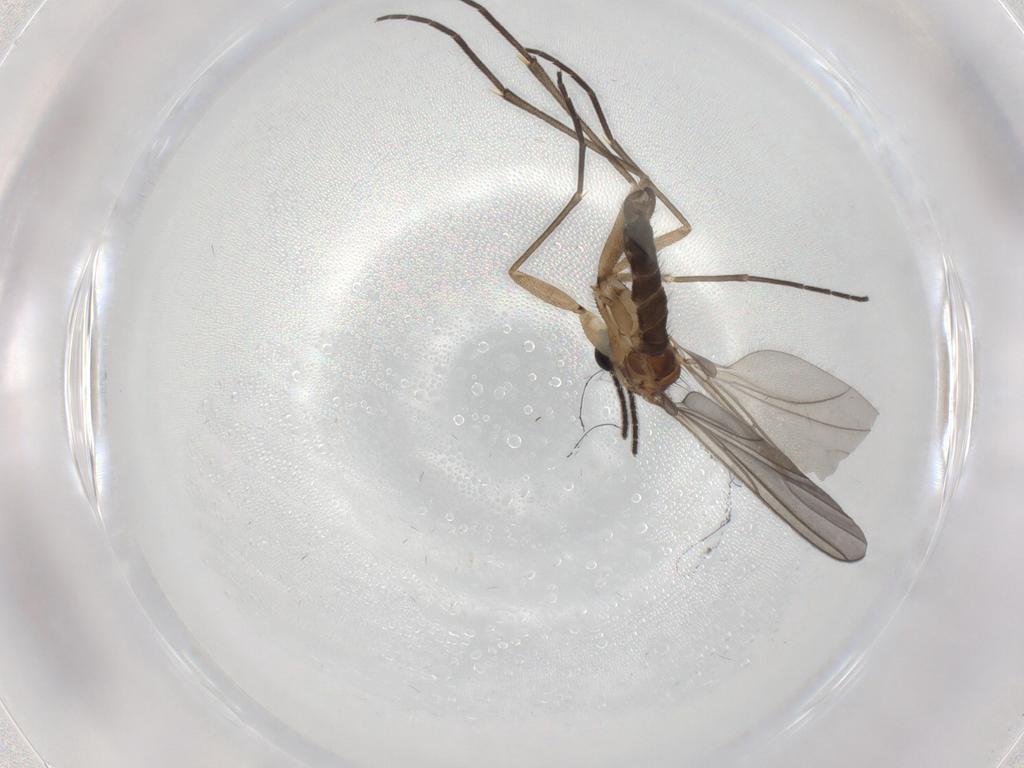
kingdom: Animalia
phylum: Arthropoda
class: Insecta
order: Diptera
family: Sciaridae
